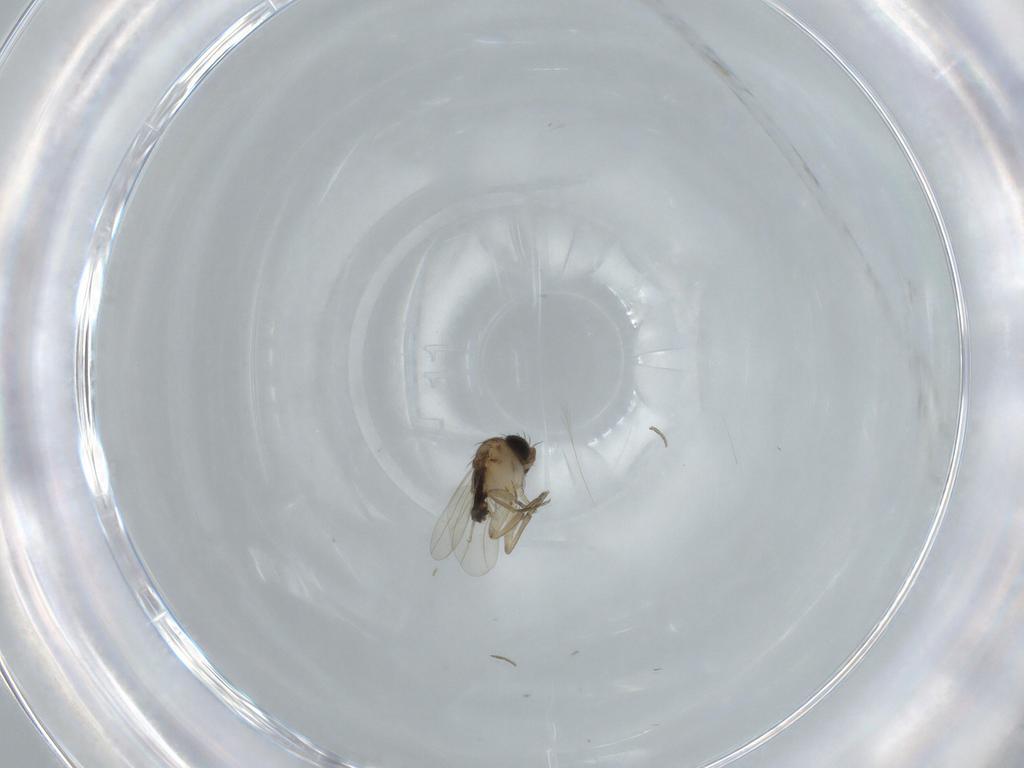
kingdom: Animalia
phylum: Arthropoda
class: Insecta
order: Diptera
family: Phoridae
